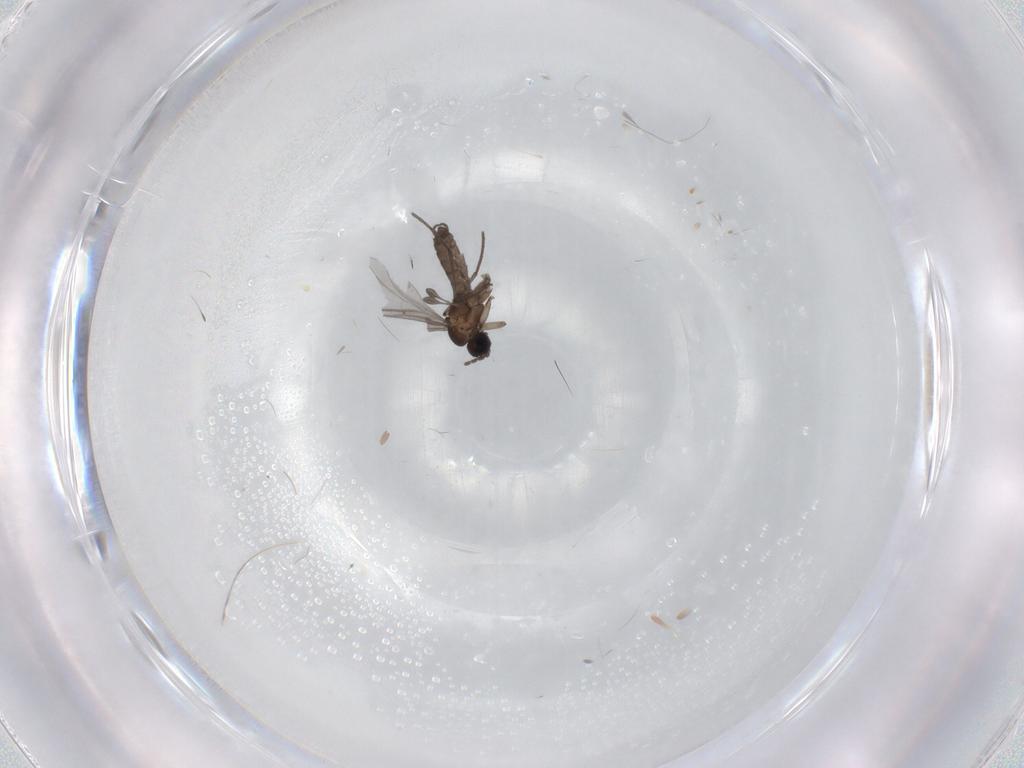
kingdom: Animalia
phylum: Arthropoda
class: Insecta
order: Diptera
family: Sciaridae
